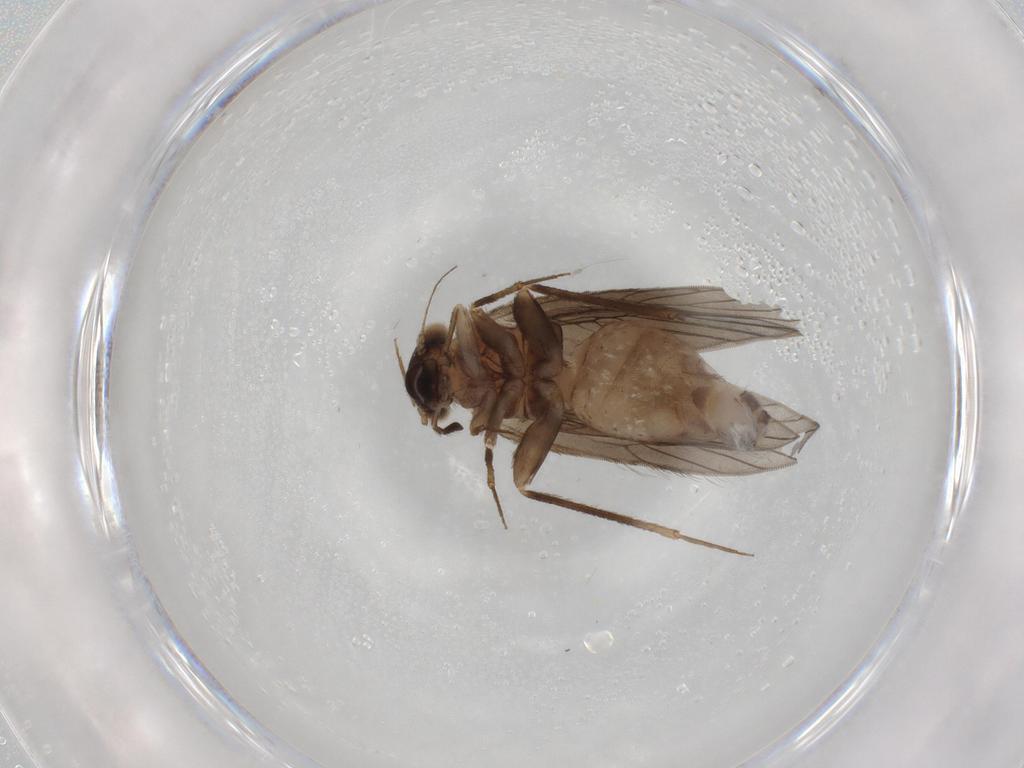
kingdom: Animalia
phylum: Arthropoda
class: Insecta
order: Psocodea
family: Lepidopsocidae
